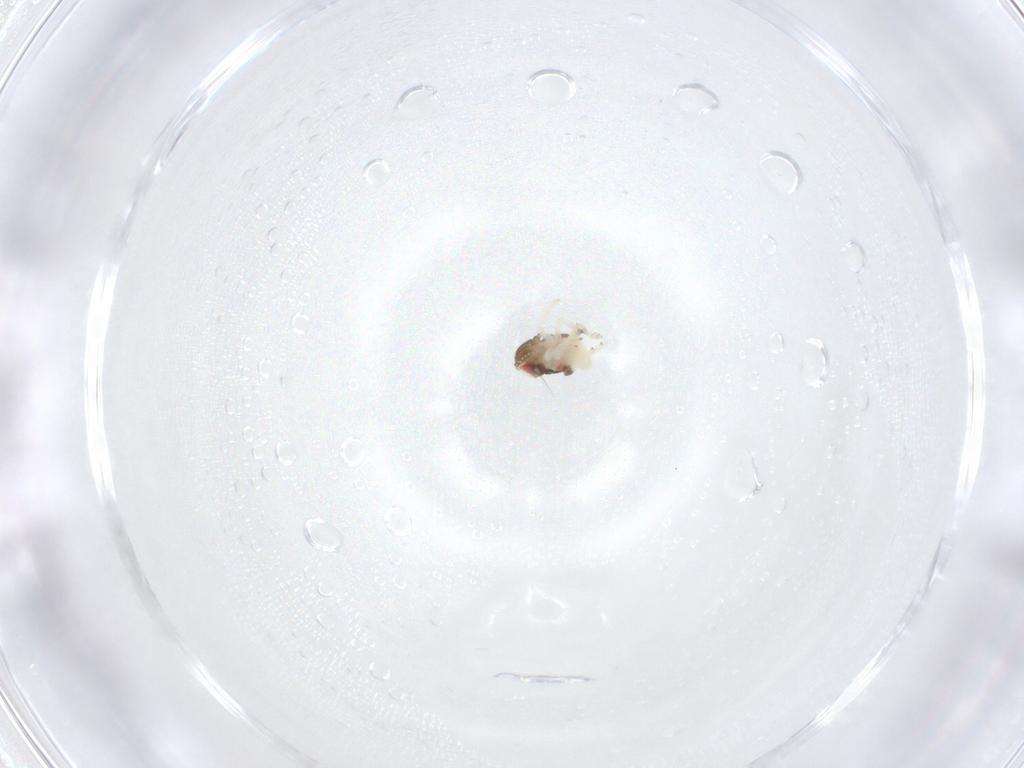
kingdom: Animalia
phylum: Arthropoda
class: Insecta
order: Hemiptera
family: Nogodinidae
